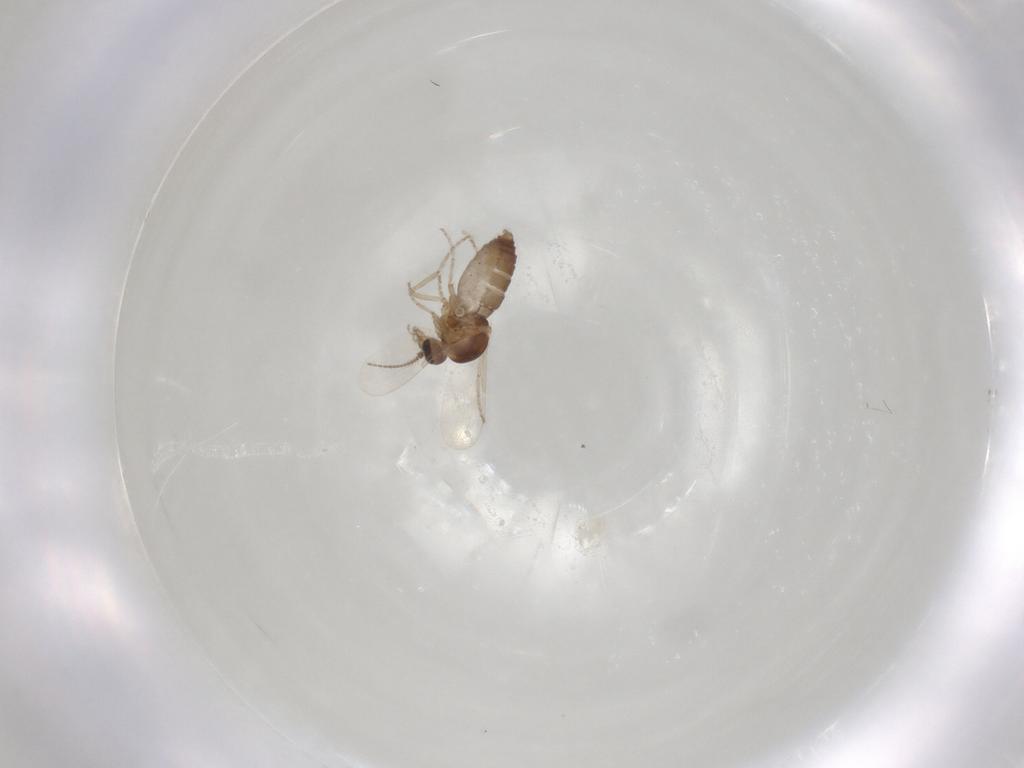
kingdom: Animalia
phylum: Arthropoda
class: Insecta
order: Diptera
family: Ceratopogonidae
